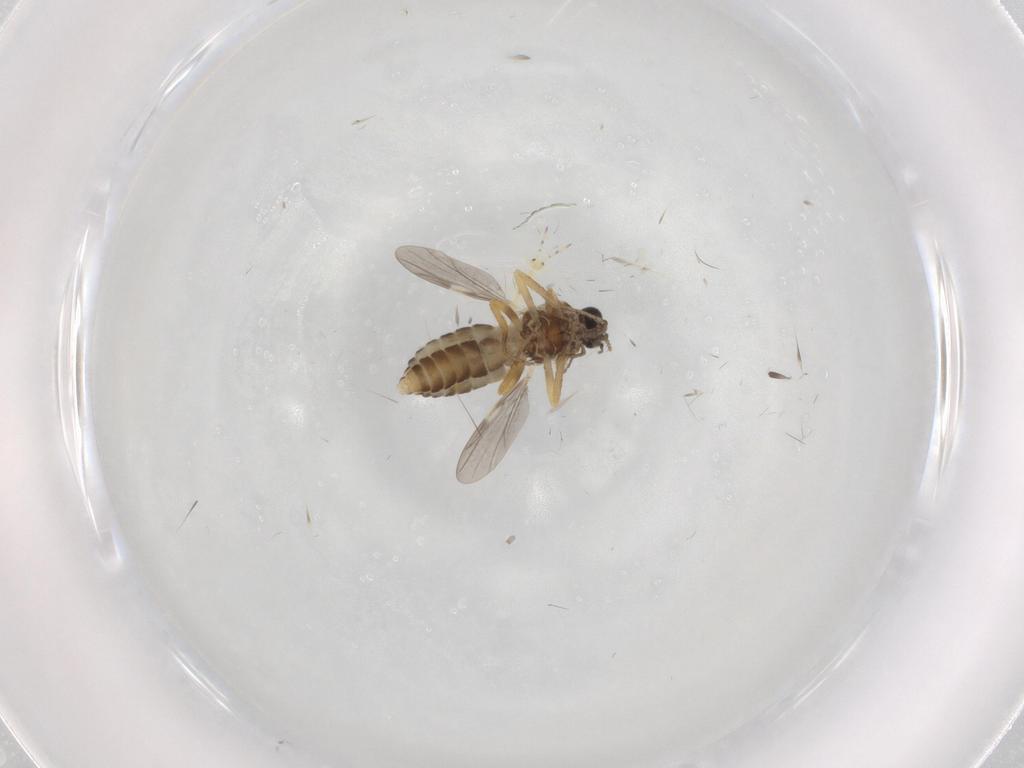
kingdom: Animalia
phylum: Arthropoda
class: Insecta
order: Diptera
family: Ceratopogonidae
